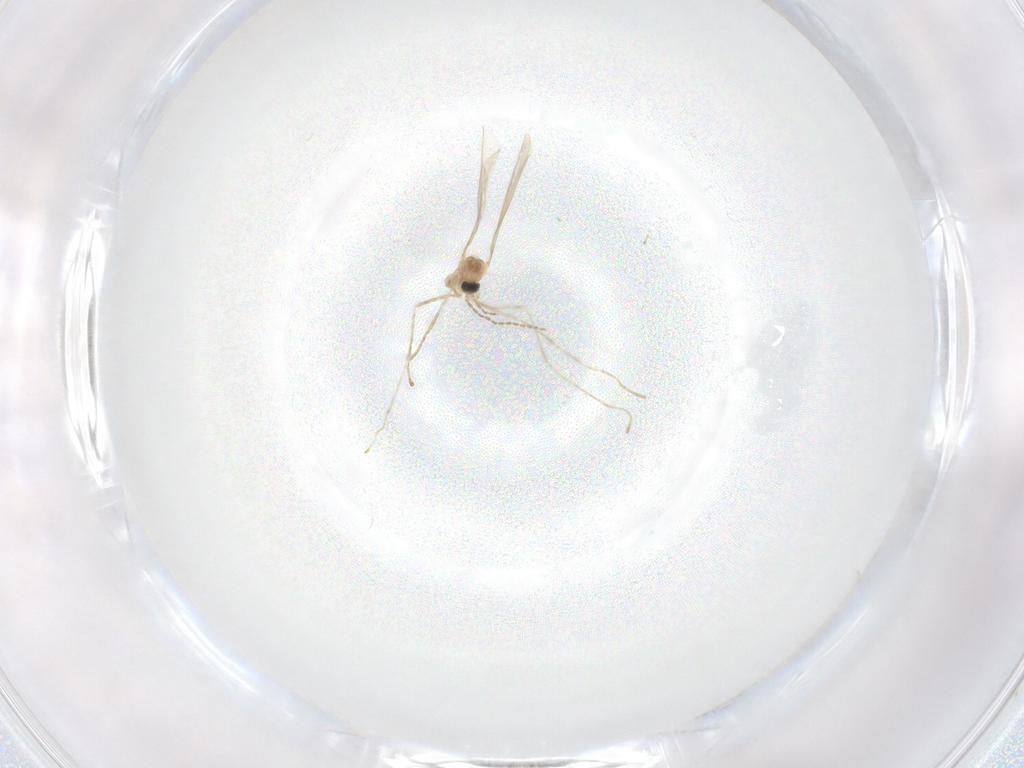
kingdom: Animalia
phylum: Arthropoda
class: Insecta
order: Diptera
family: Chironomidae
